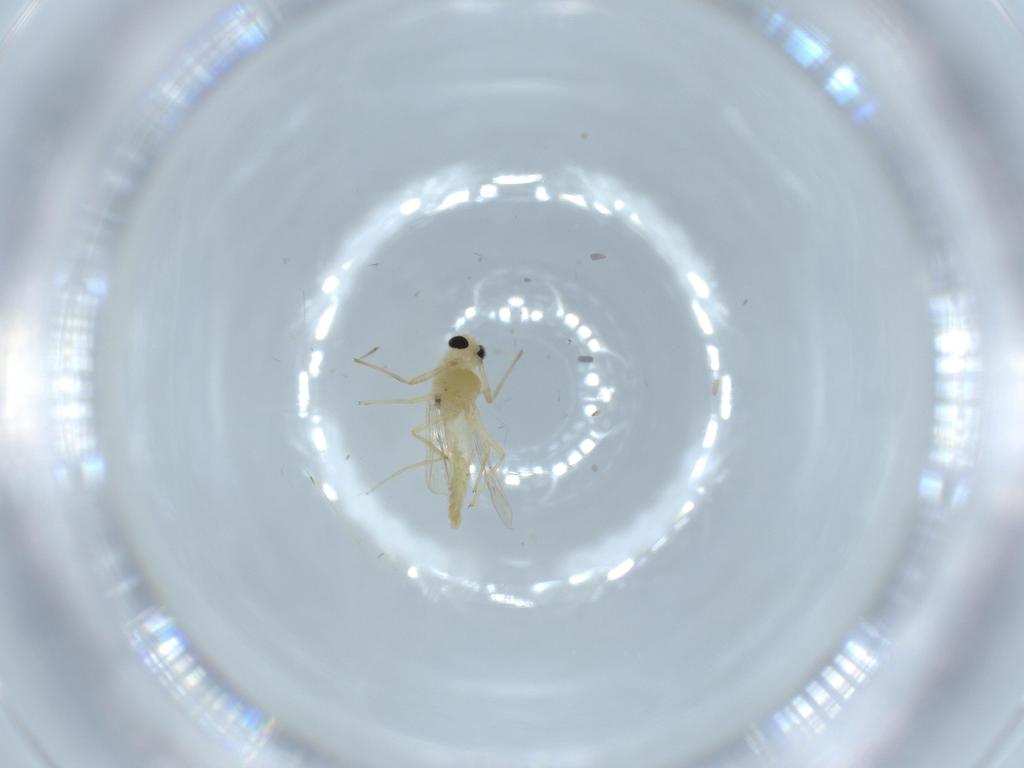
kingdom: Animalia
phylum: Arthropoda
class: Insecta
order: Diptera
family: Chironomidae
